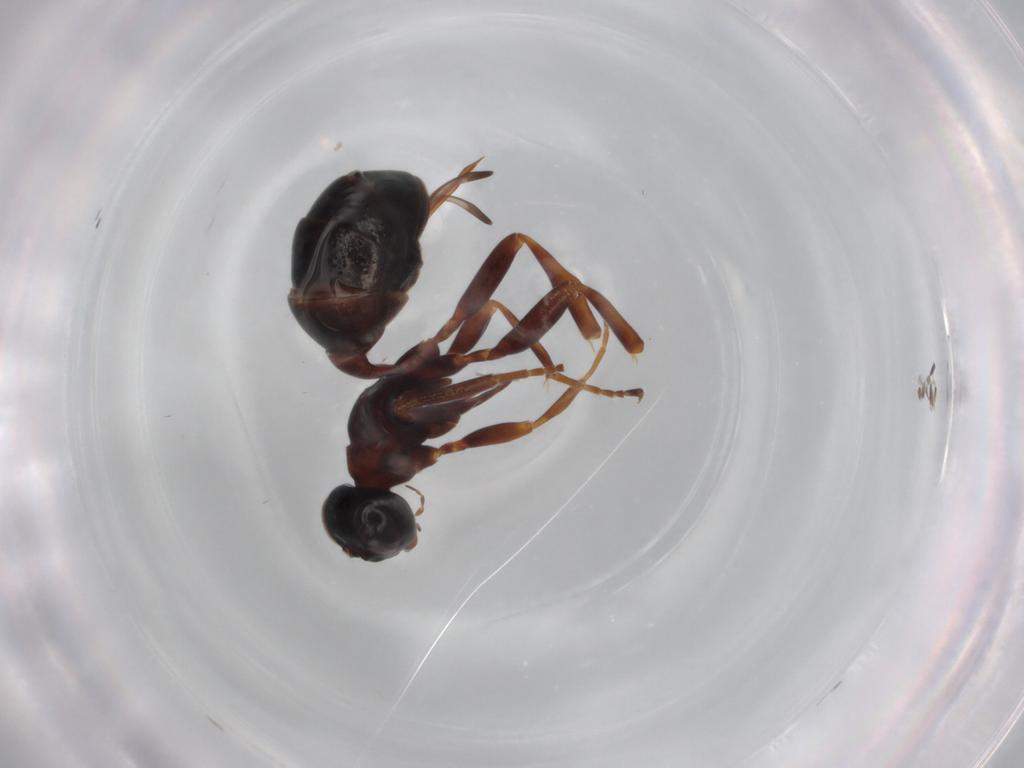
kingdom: Animalia
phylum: Arthropoda
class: Insecta
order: Hymenoptera
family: Ichneumonidae
